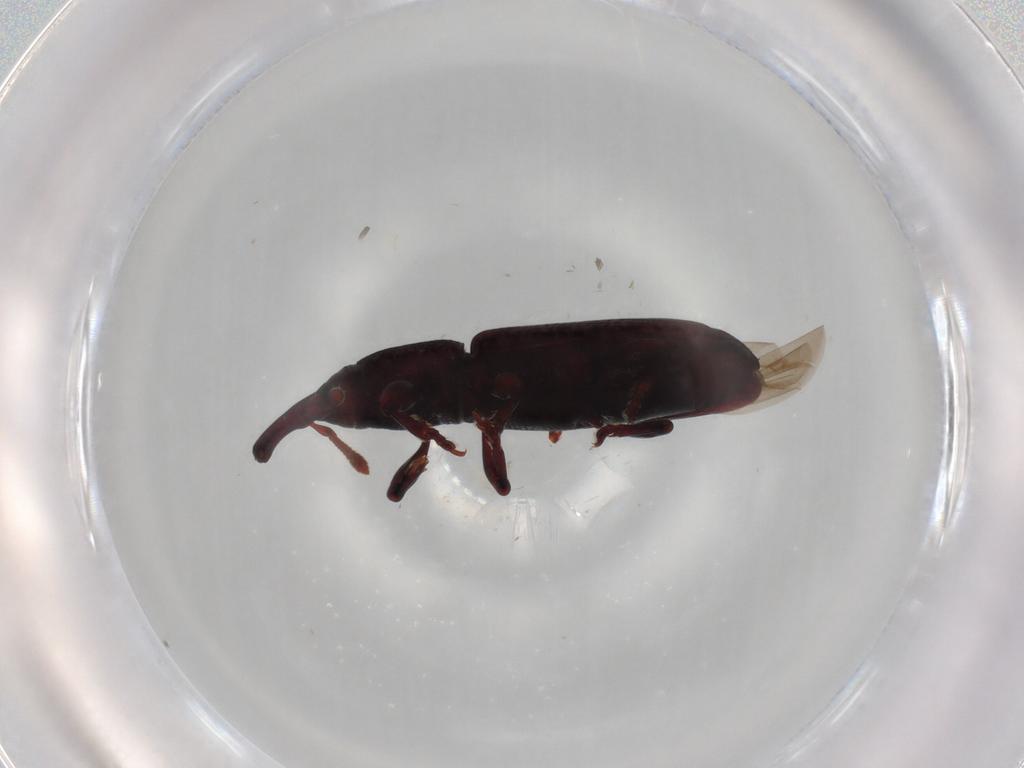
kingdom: Animalia
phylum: Arthropoda
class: Insecta
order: Coleoptera
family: Curculionidae
